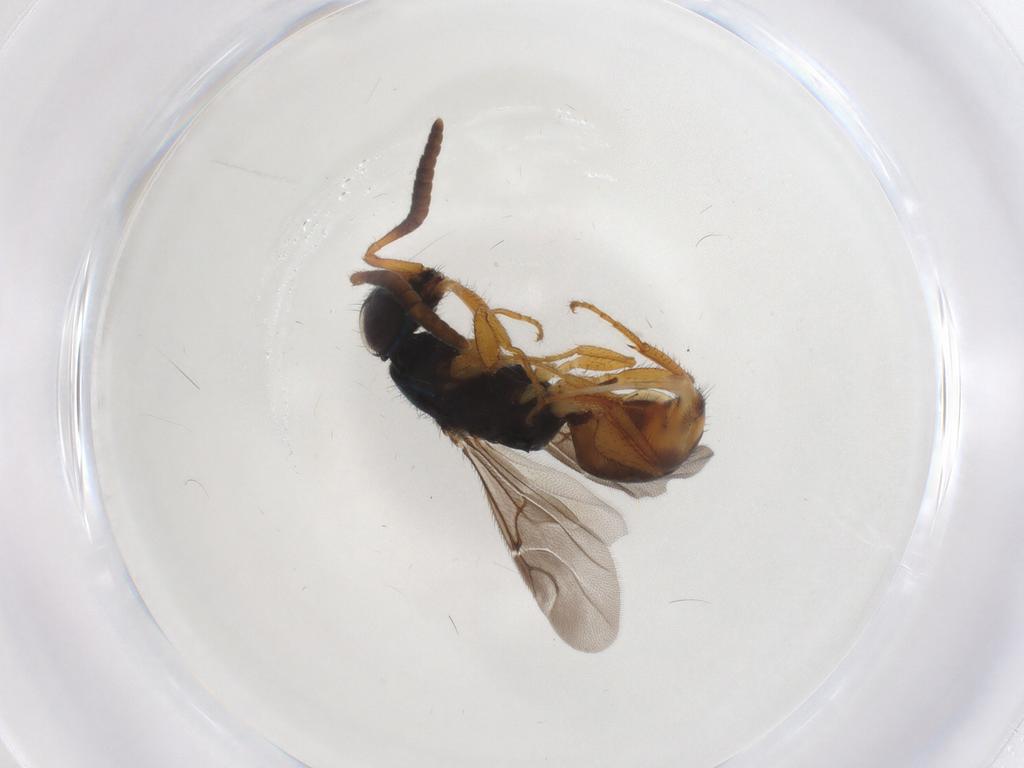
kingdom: Animalia
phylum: Arthropoda
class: Insecta
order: Hymenoptera
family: Chrysididae
